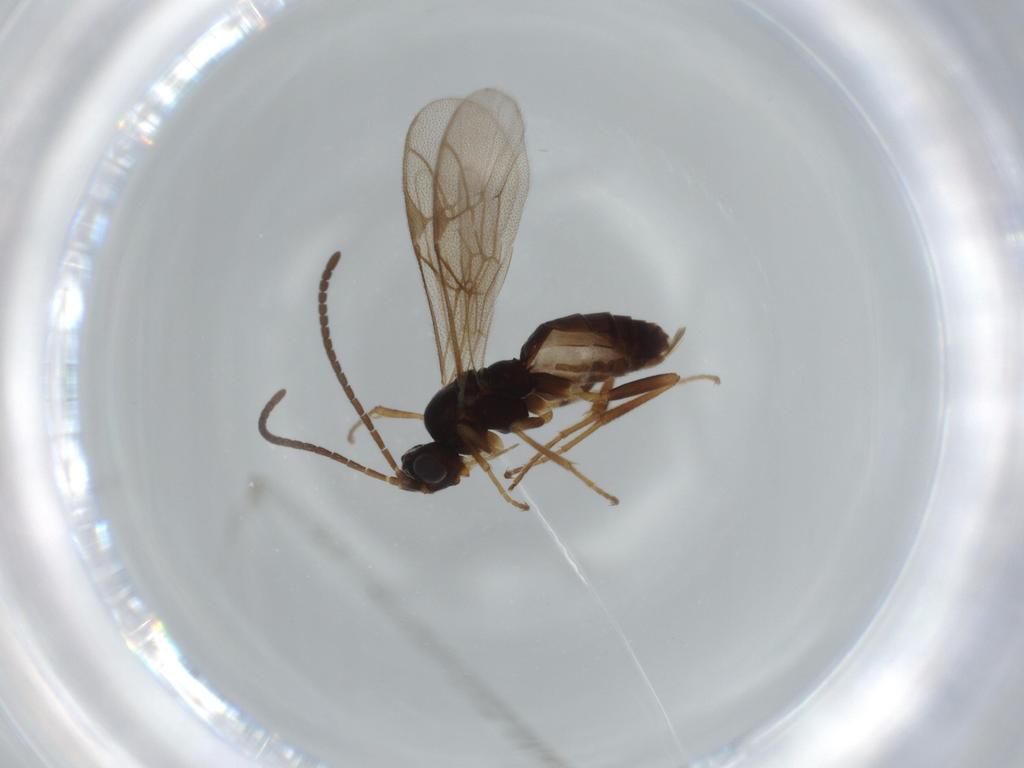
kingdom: Animalia
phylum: Arthropoda
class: Insecta
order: Hymenoptera
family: Ichneumonidae
